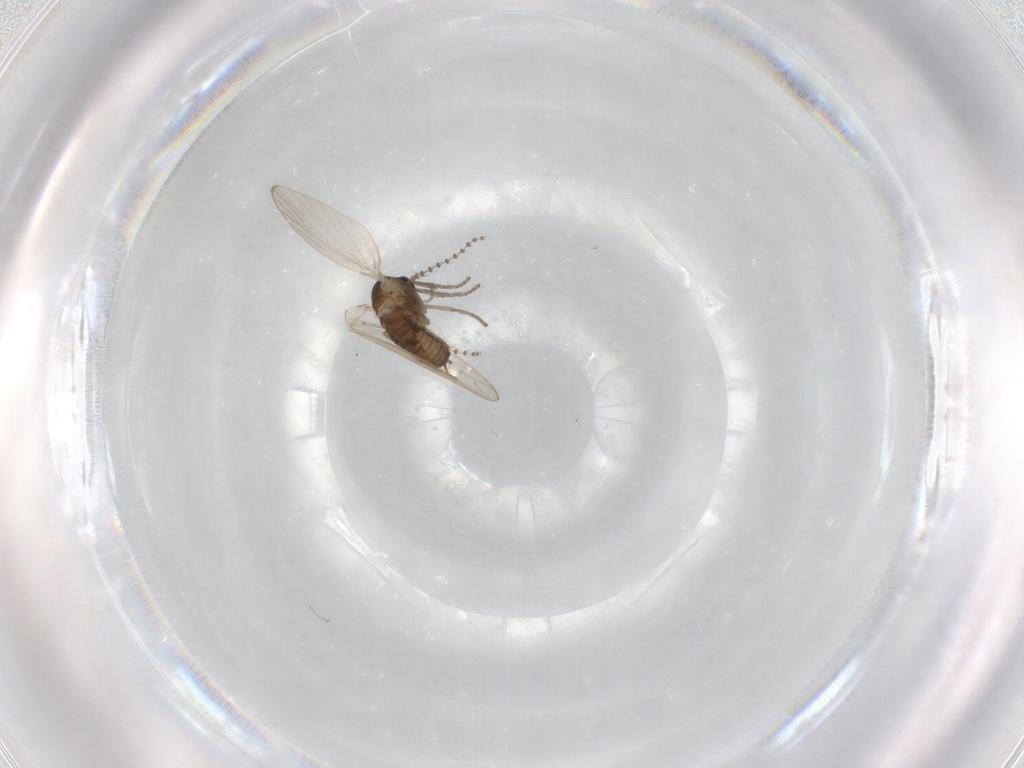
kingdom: Animalia
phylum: Arthropoda
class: Insecta
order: Diptera
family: Psychodidae
